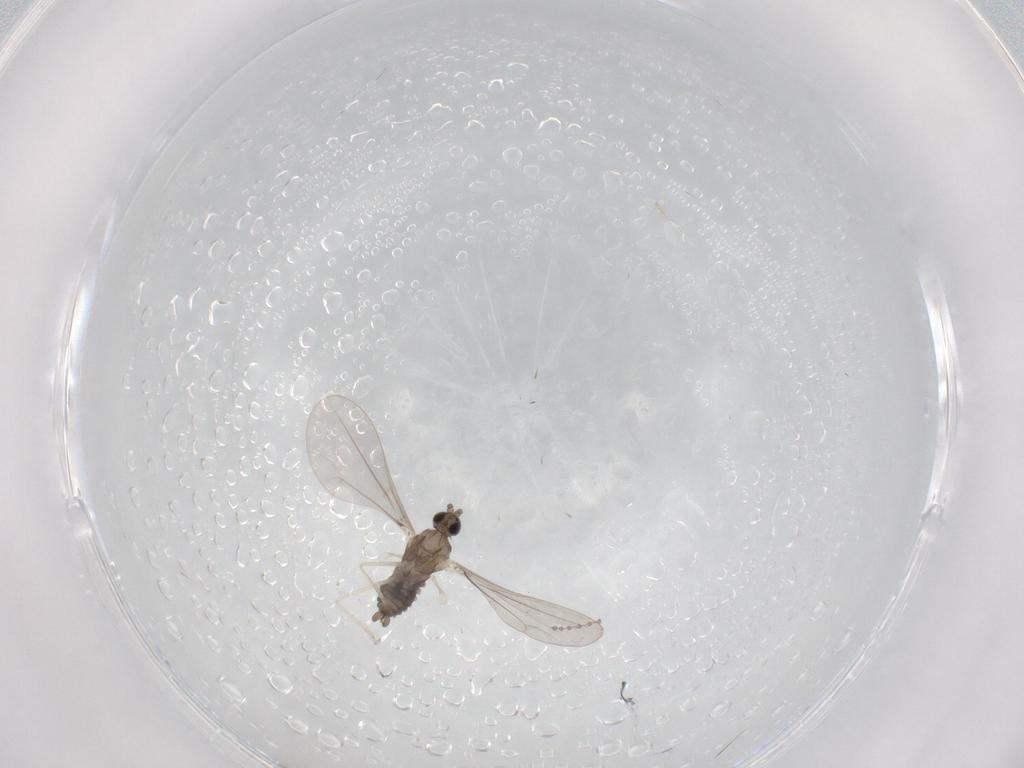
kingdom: Animalia
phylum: Arthropoda
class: Insecta
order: Diptera
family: Cecidomyiidae
